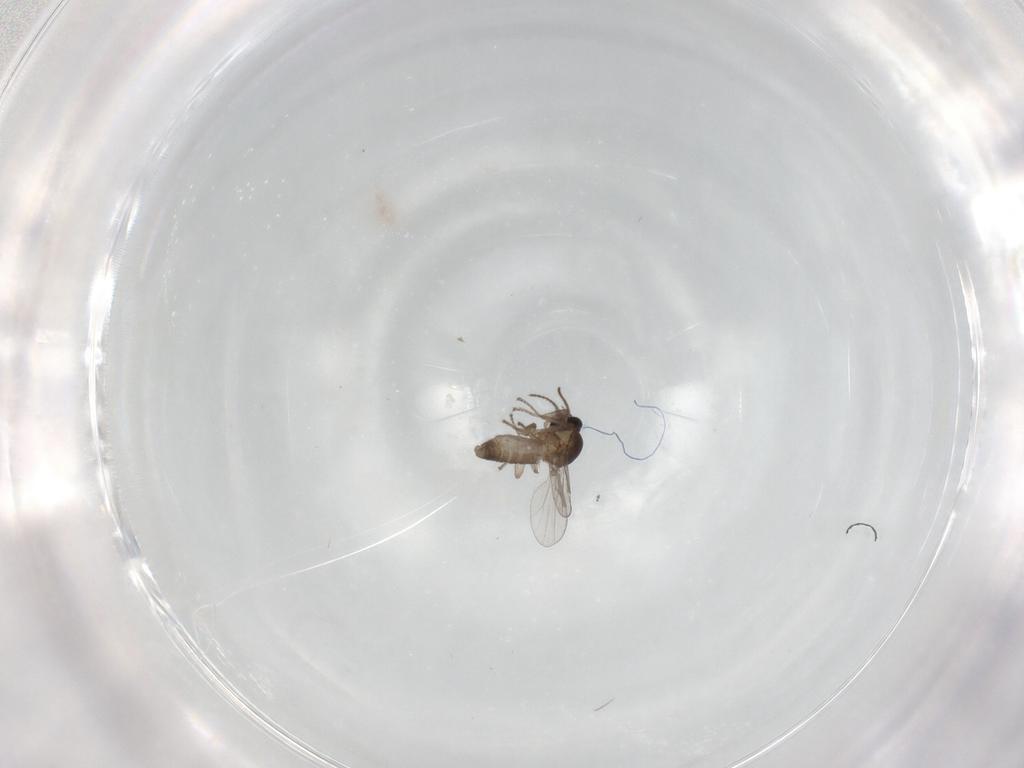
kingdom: Animalia
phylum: Arthropoda
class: Insecta
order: Diptera
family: Ceratopogonidae
